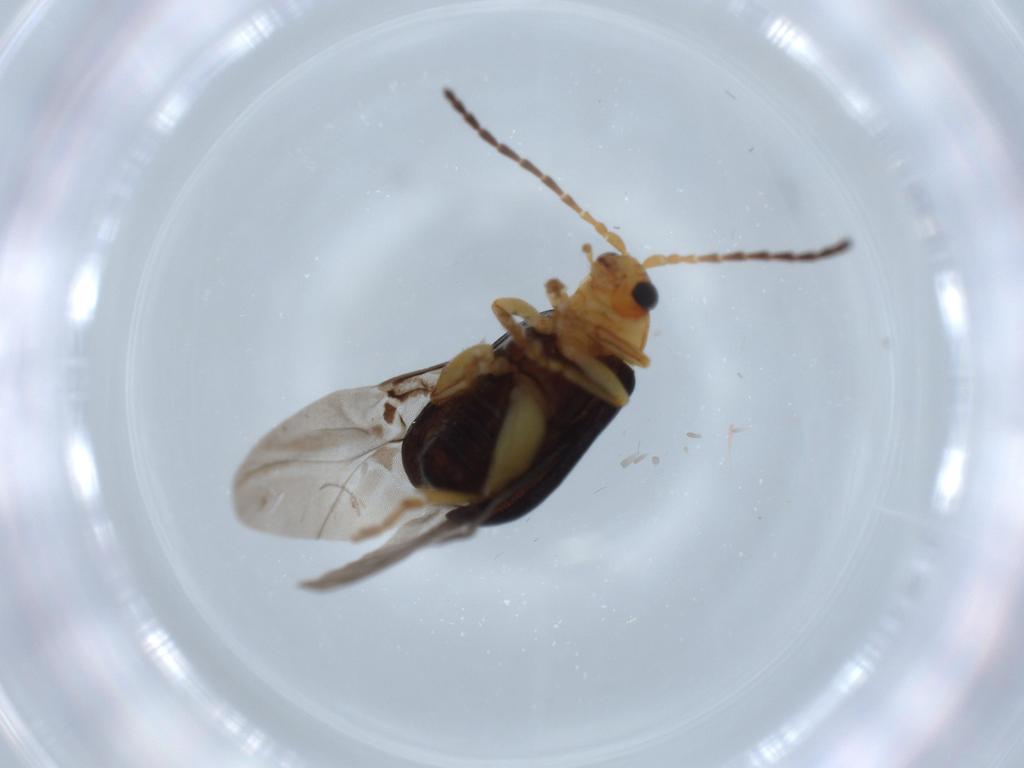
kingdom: Animalia
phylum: Arthropoda
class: Insecta
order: Coleoptera
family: Chrysomelidae
